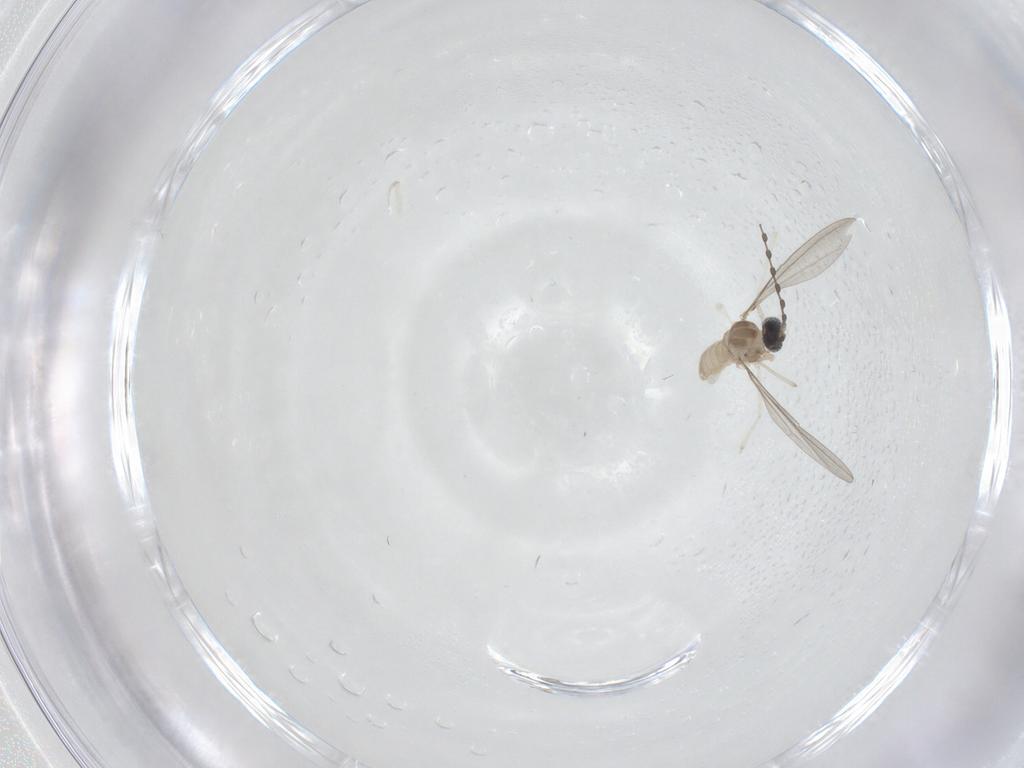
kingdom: Animalia
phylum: Arthropoda
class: Insecta
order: Diptera
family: Cecidomyiidae
